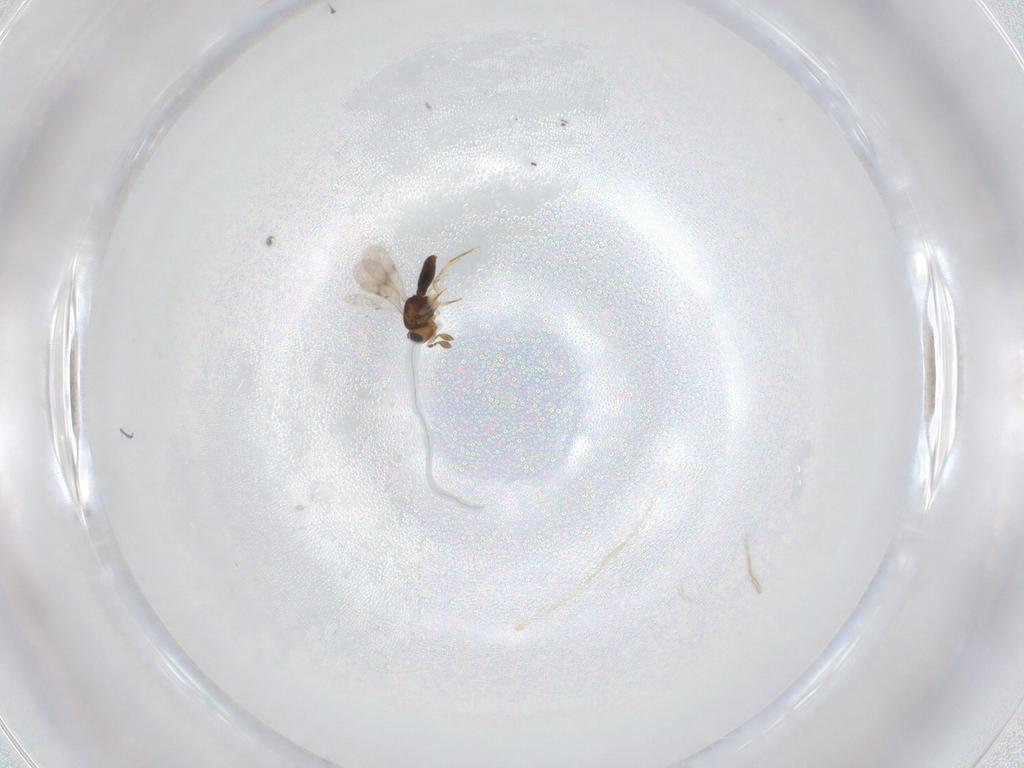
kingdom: Animalia
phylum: Arthropoda
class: Insecta
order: Hymenoptera
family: Scelionidae
